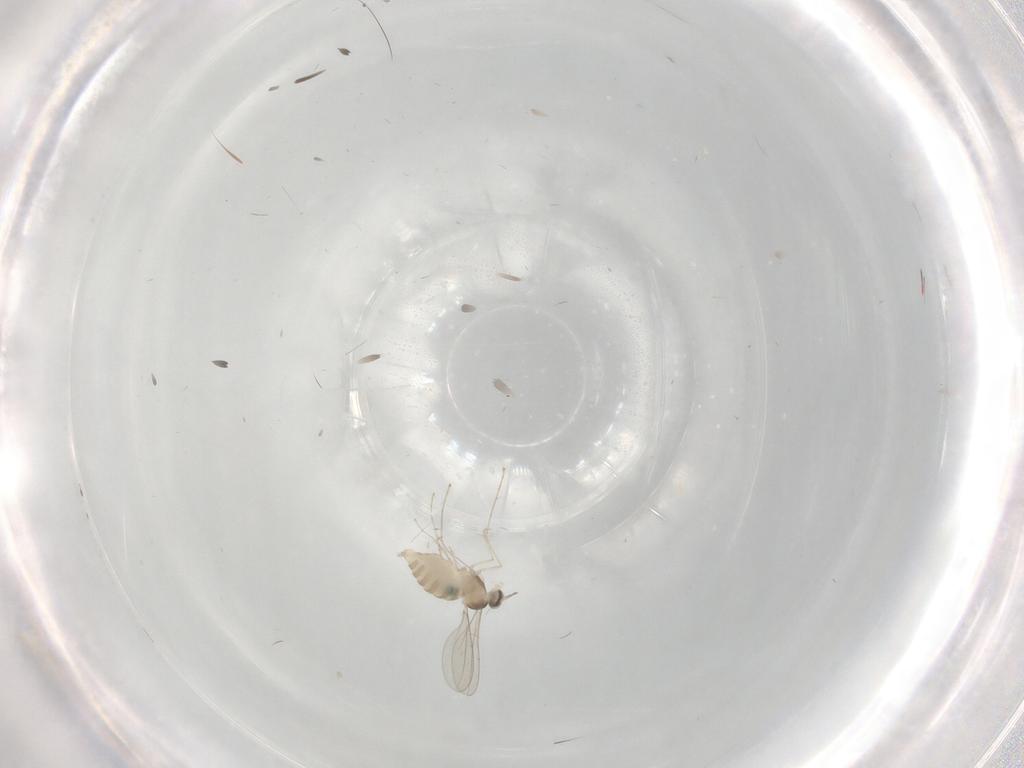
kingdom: Animalia
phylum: Arthropoda
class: Insecta
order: Diptera
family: Cecidomyiidae
